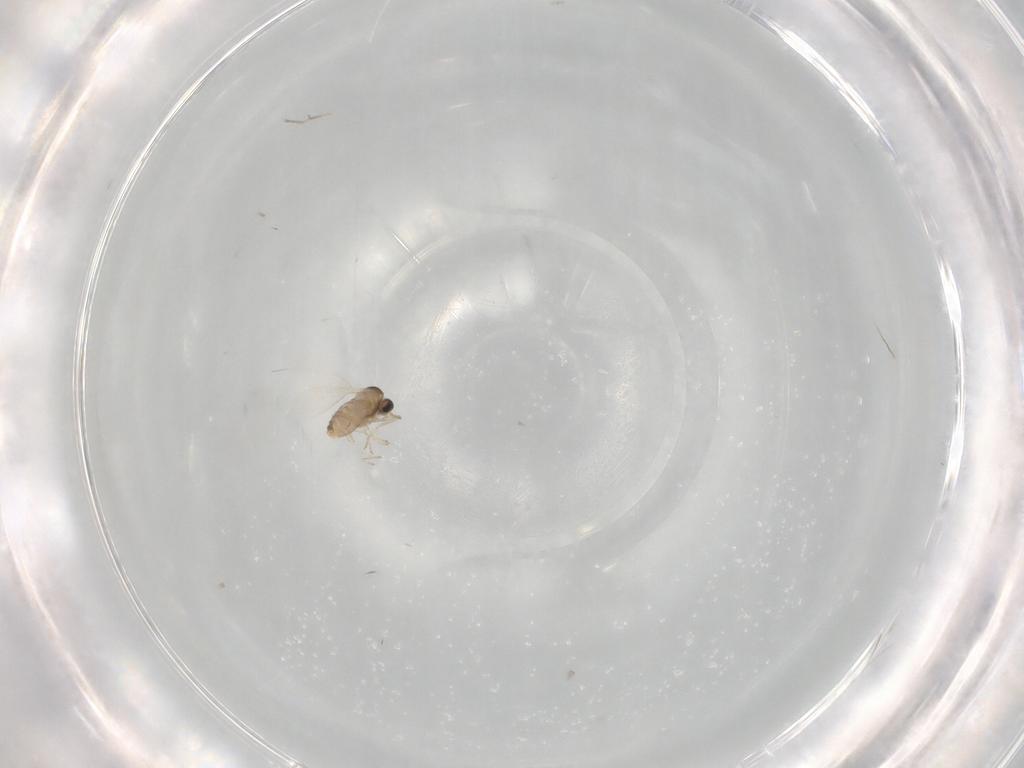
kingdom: Animalia
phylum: Arthropoda
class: Insecta
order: Diptera
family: Cecidomyiidae
